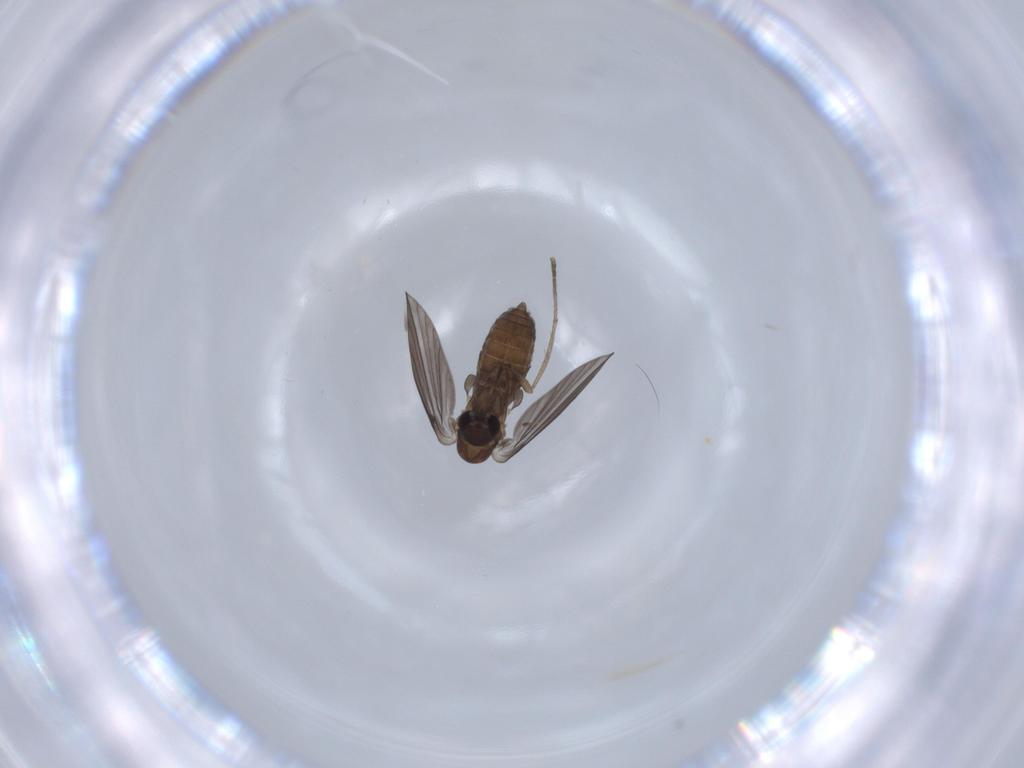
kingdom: Animalia
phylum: Arthropoda
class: Insecta
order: Diptera
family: Psychodidae
